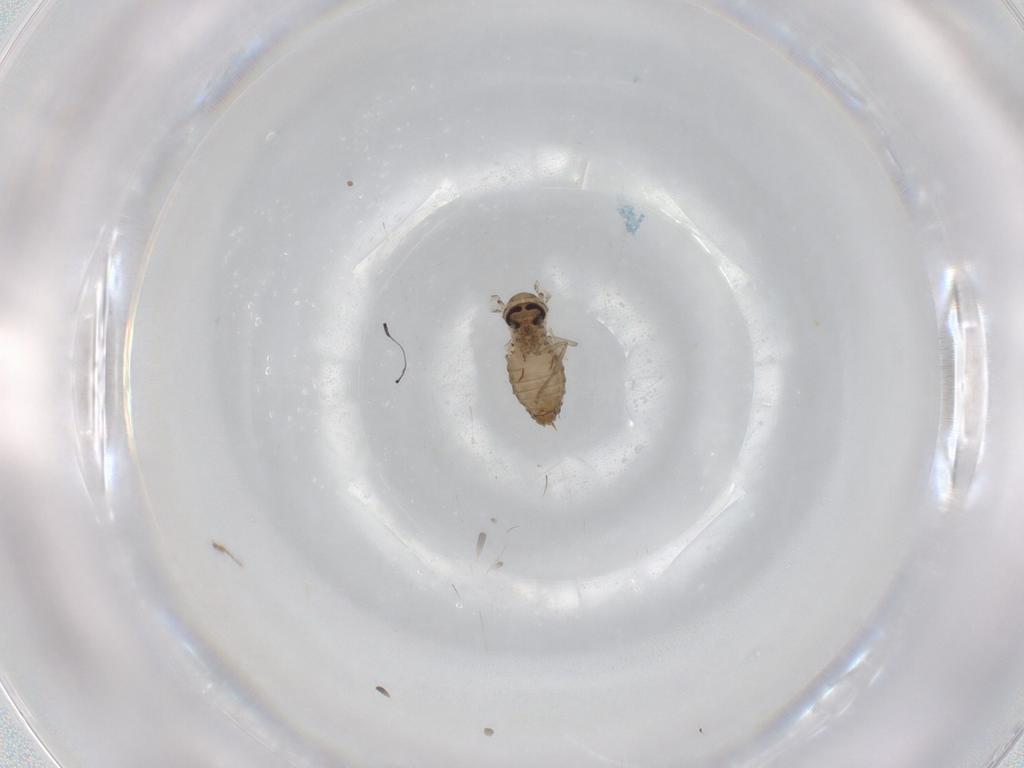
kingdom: Animalia
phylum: Arthropoda
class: Insecta
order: Diptera
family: Psychodidae
